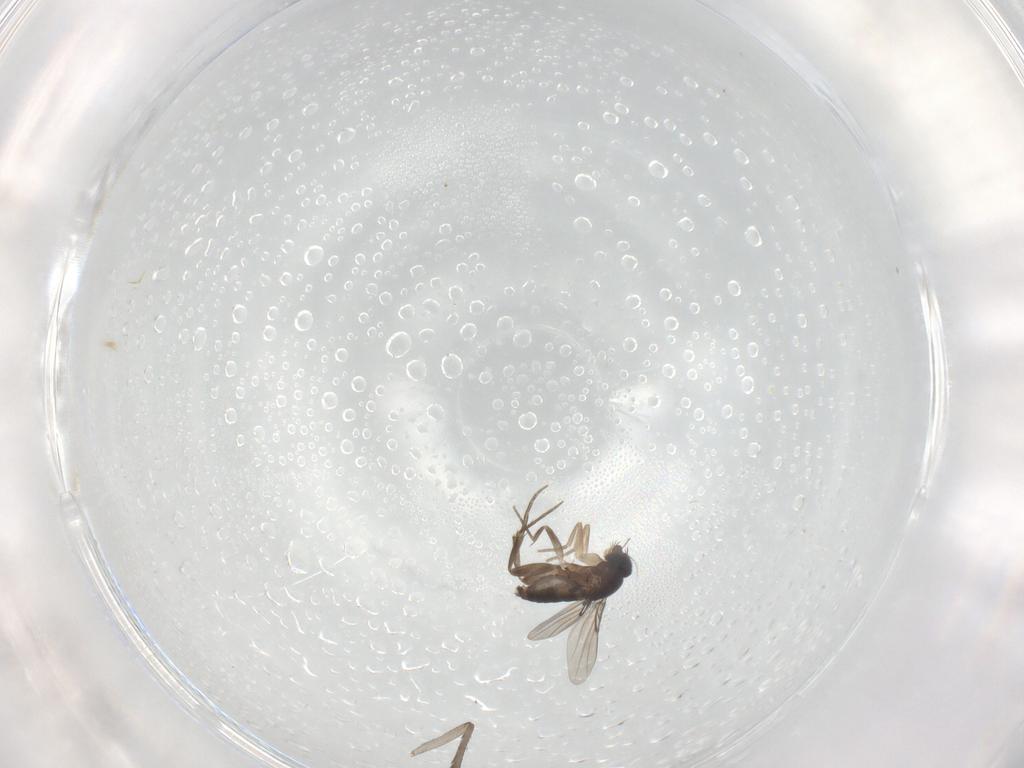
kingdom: Animalia
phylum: Arthropoda
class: Insecta
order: Diptera
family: Phoridae
